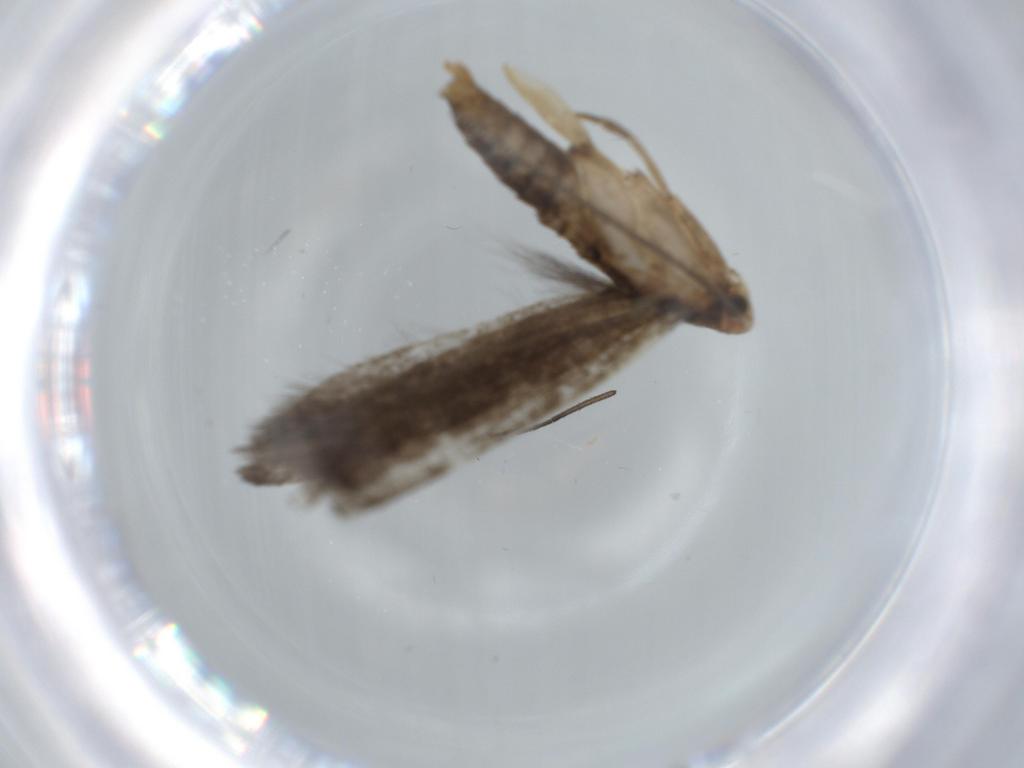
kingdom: Animalia
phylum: Arthropoda
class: Insecta
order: Lepidoptera
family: Tineidae
